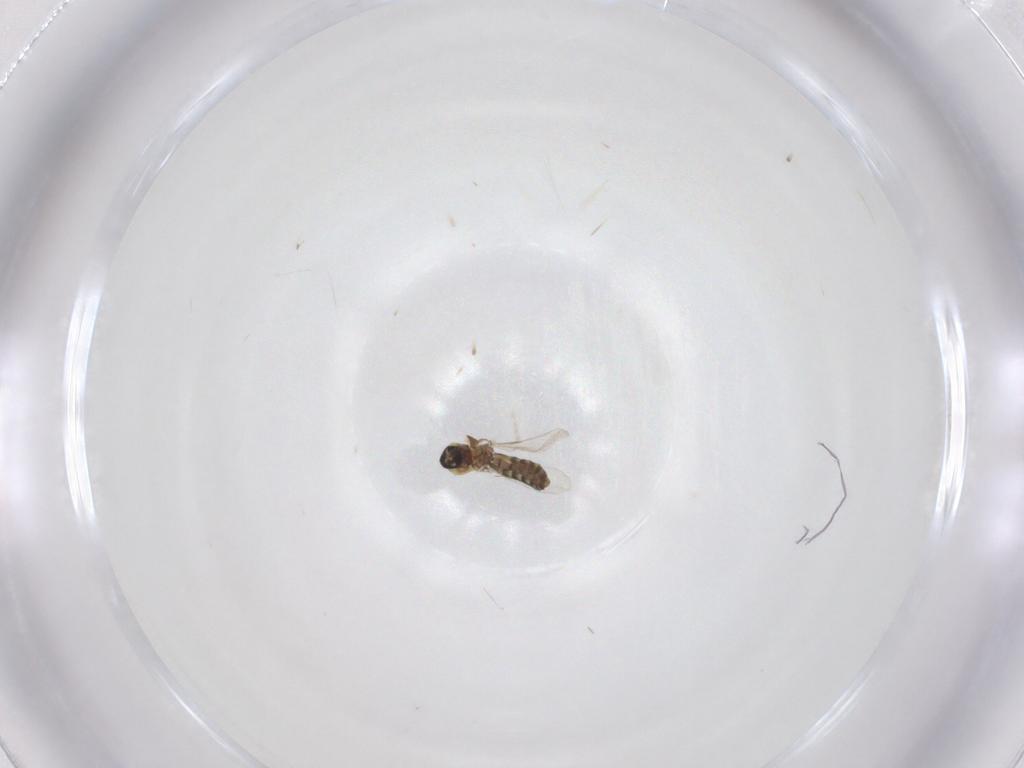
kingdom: Animalia
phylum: Arthropoda
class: Insecta
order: Diptera
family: Ceratopogonidae
